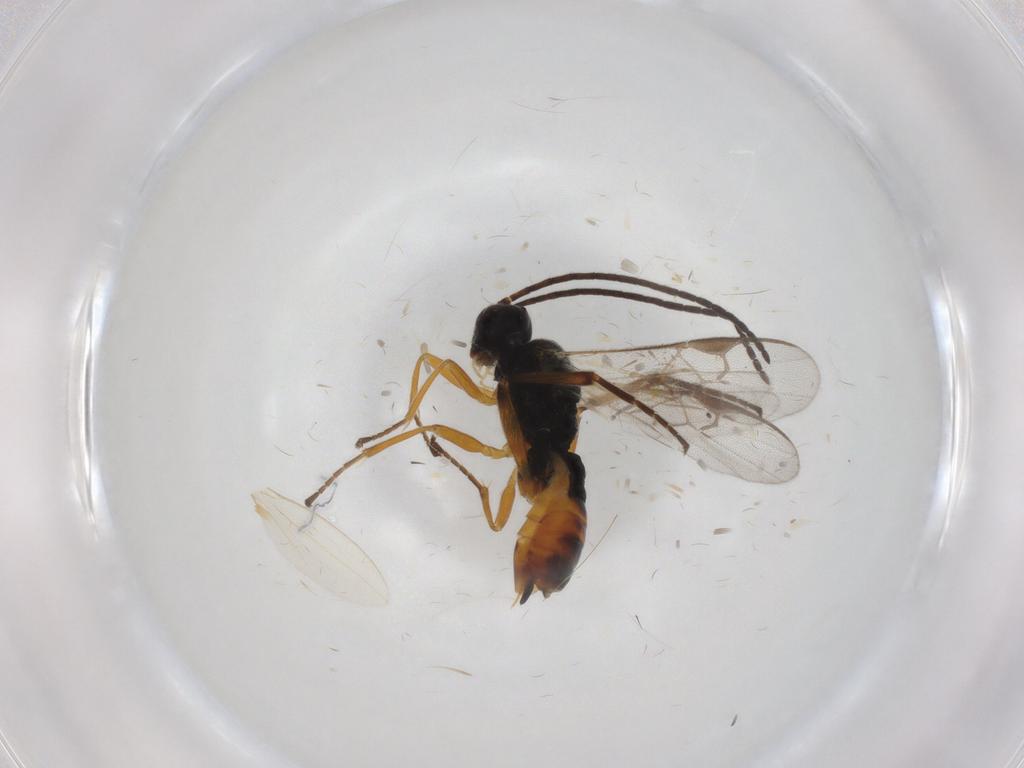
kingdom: Animalia
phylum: Arthropoda
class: Insecta
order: Hymenoptera
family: Braconidae
